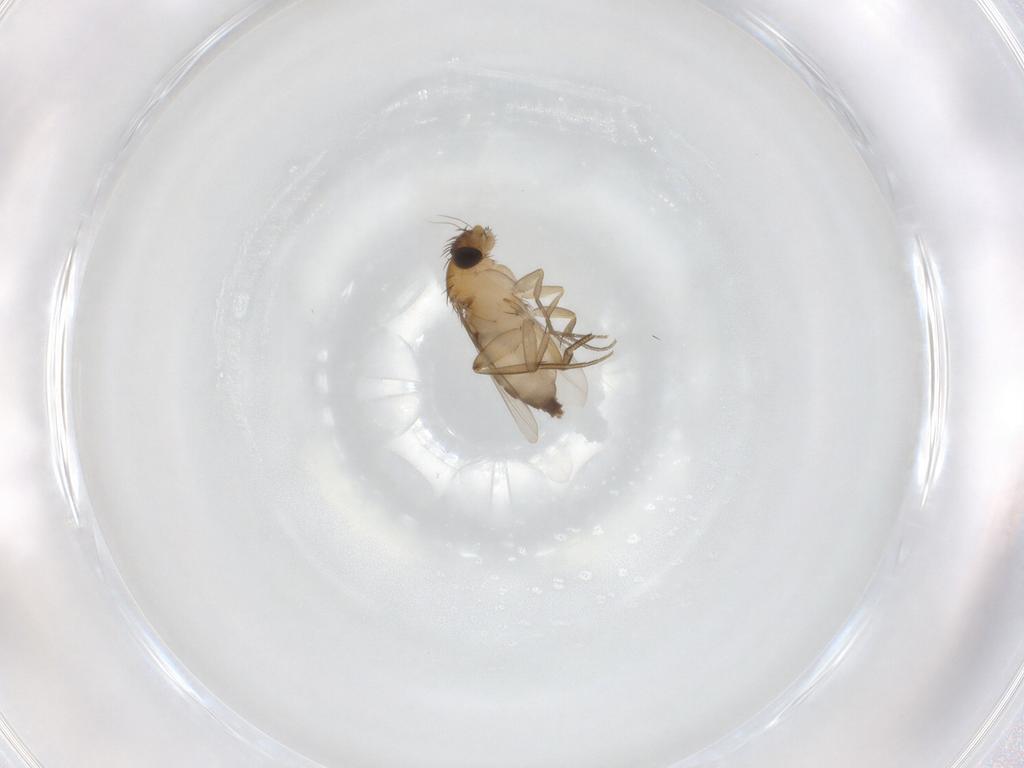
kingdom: Animalia
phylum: Arthropoda
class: Insecta
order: Diptera
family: Phoridae
